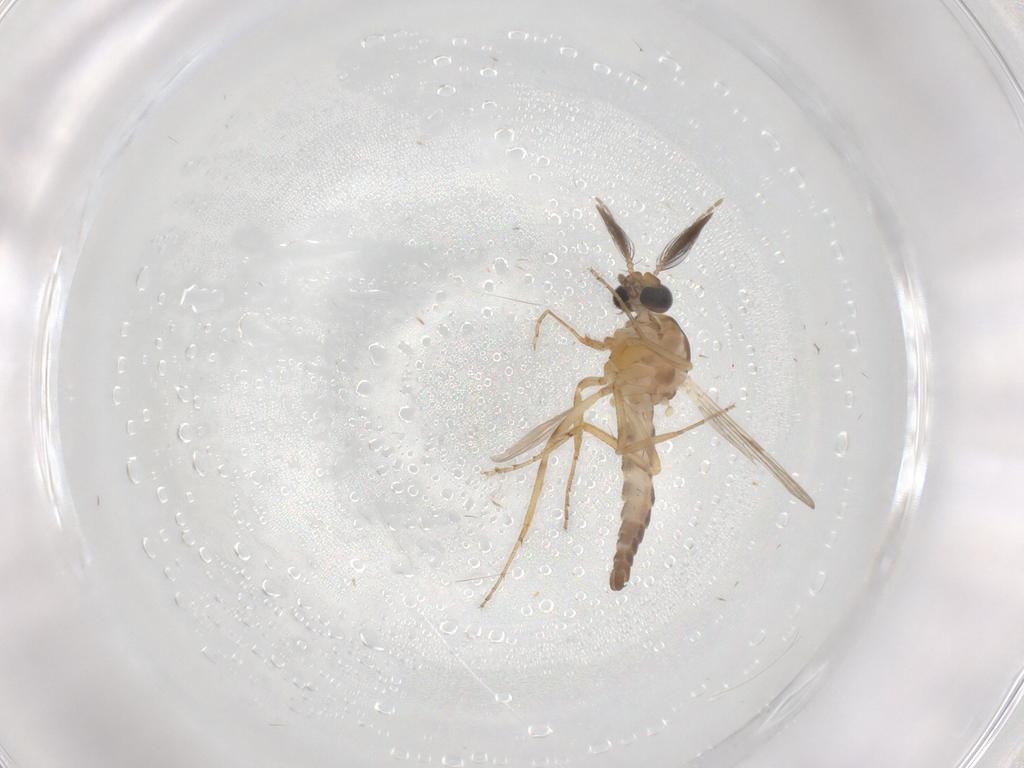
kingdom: Animalia
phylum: Arthropoda
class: Insecta
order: Diptera
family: Ceratopogonidae
